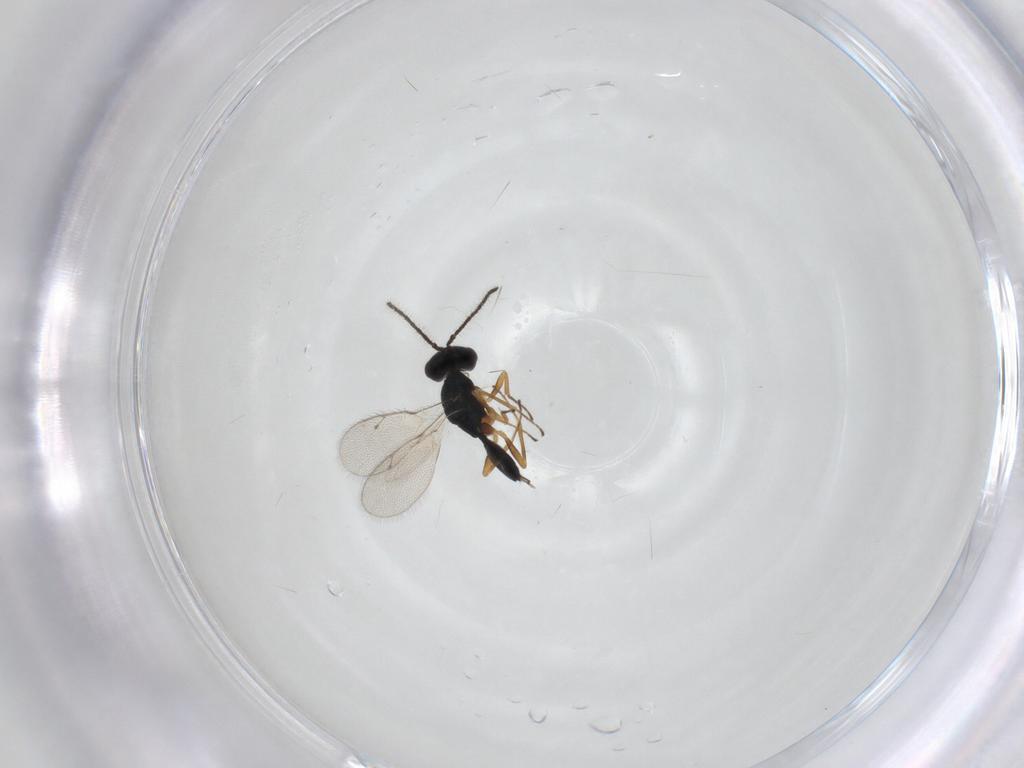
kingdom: Animalia
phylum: Arthropoda
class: Insecta
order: Hymenoptera
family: Pteromalidae
